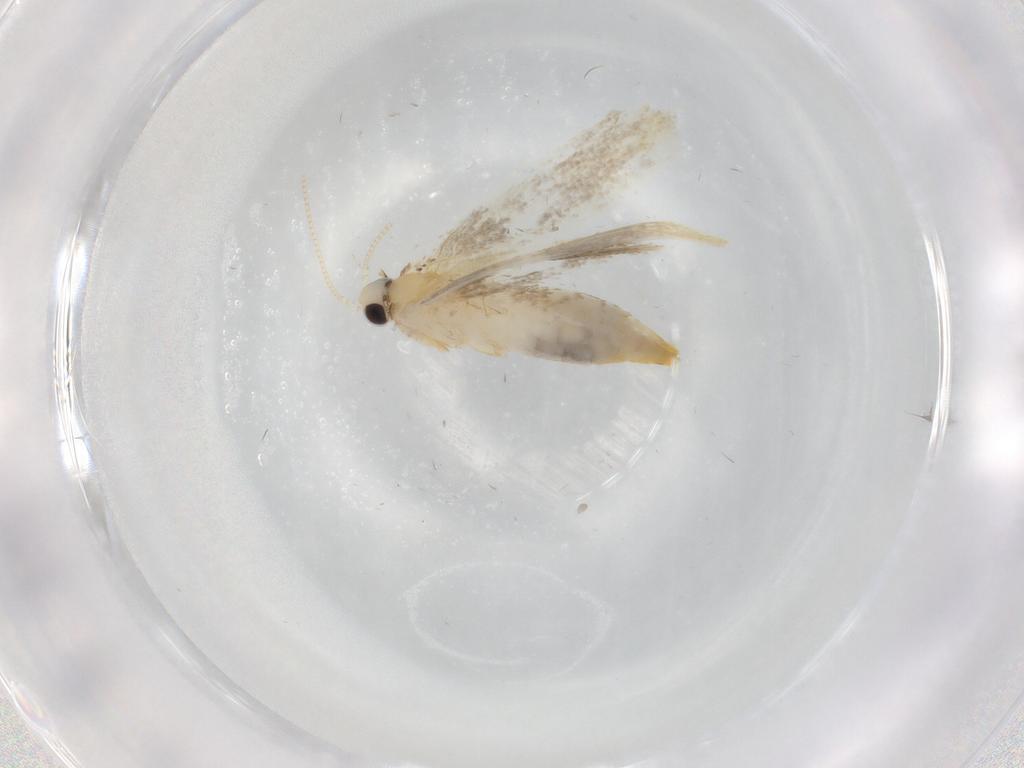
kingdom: Animalia
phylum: Arthropoda
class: Insecta
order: Lepidoptera
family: Tineidae
